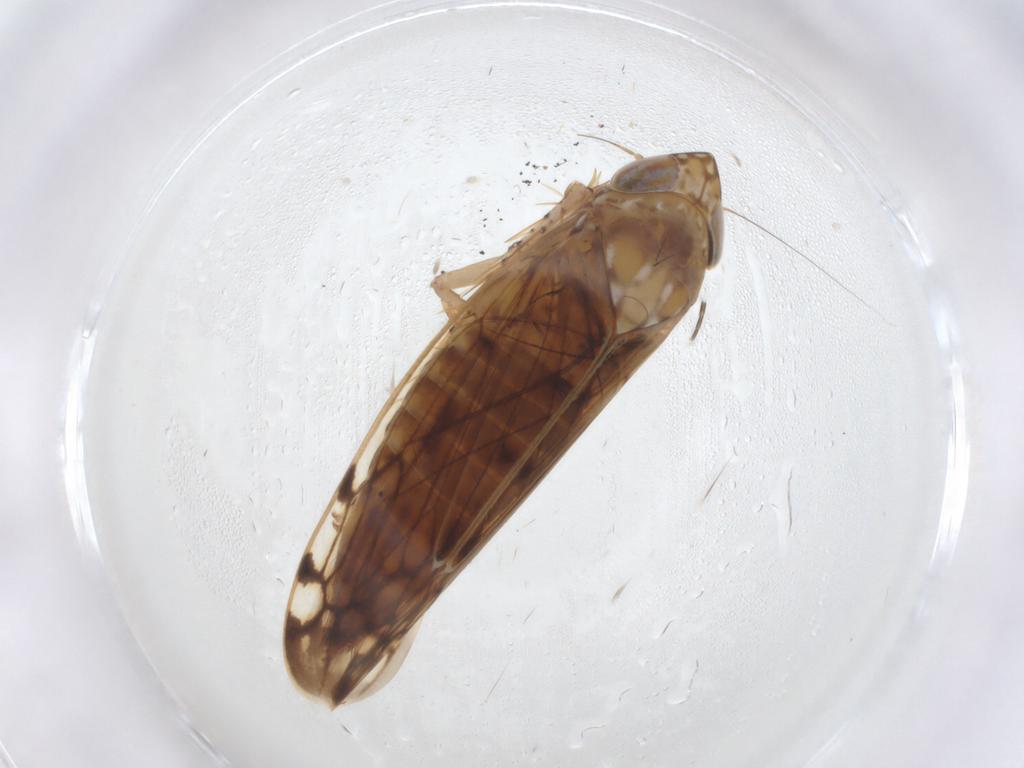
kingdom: Animalia
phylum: Arthropoda
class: Insecta
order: Hemiptera
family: Cicadellidae
